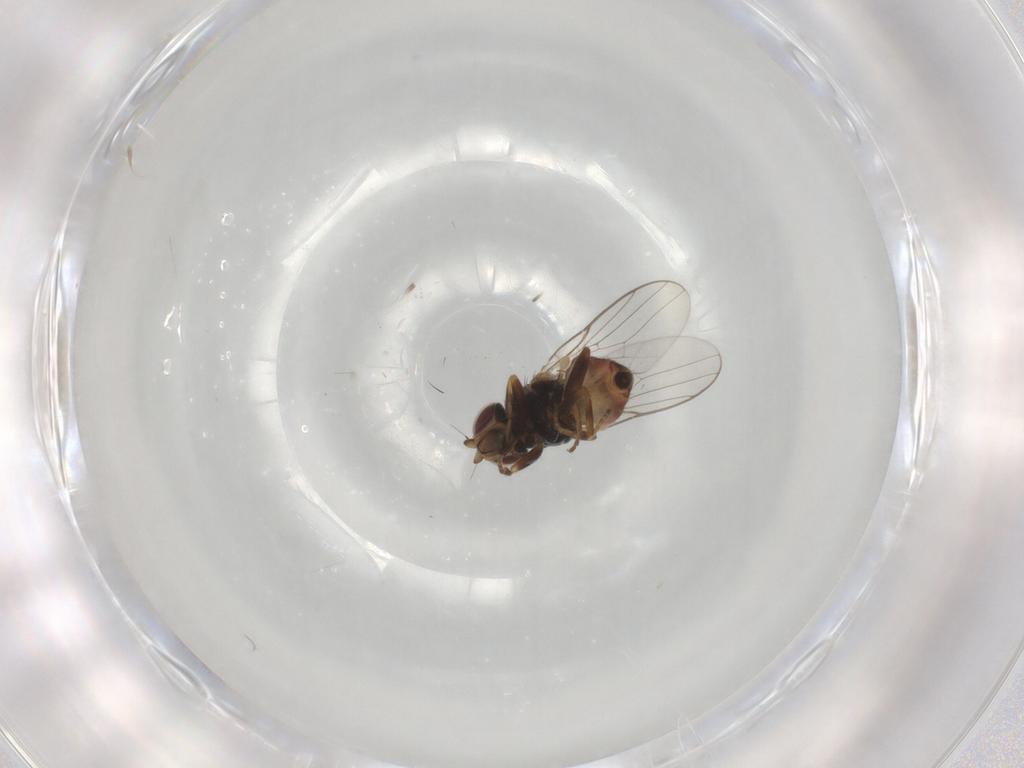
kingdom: Animalia
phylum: Arthropoda
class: Insecta
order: Diptera
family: Chloropidae
